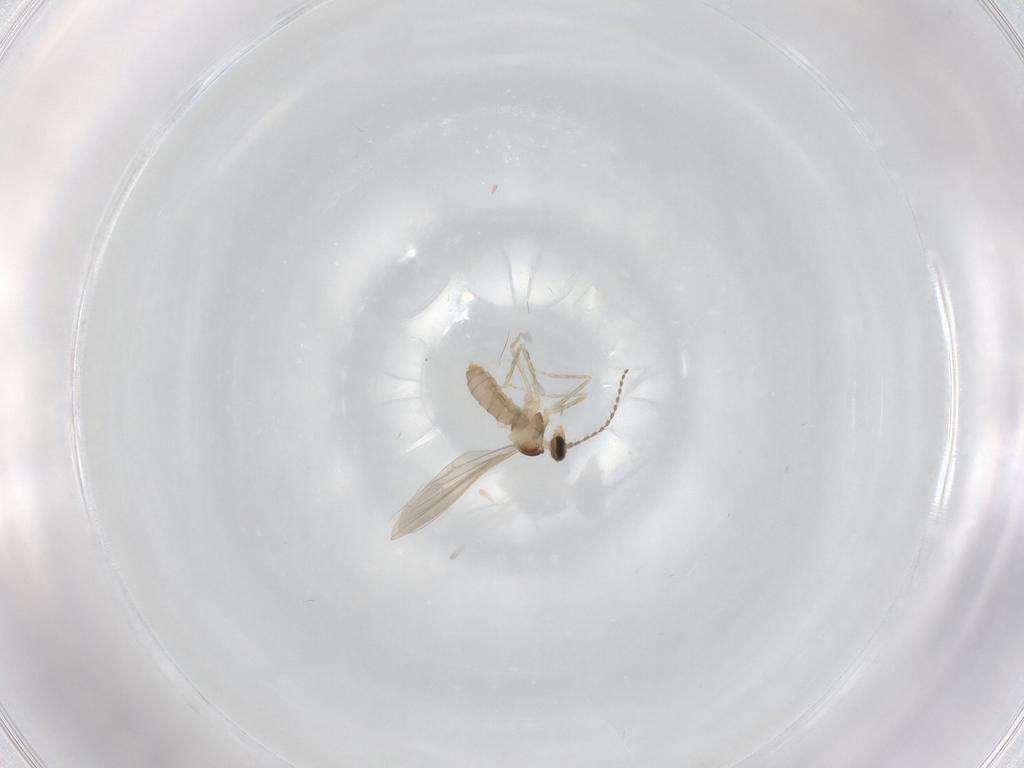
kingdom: Animalia
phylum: Arthropoda
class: Insecta
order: Diptera
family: Cecidomyiidae
